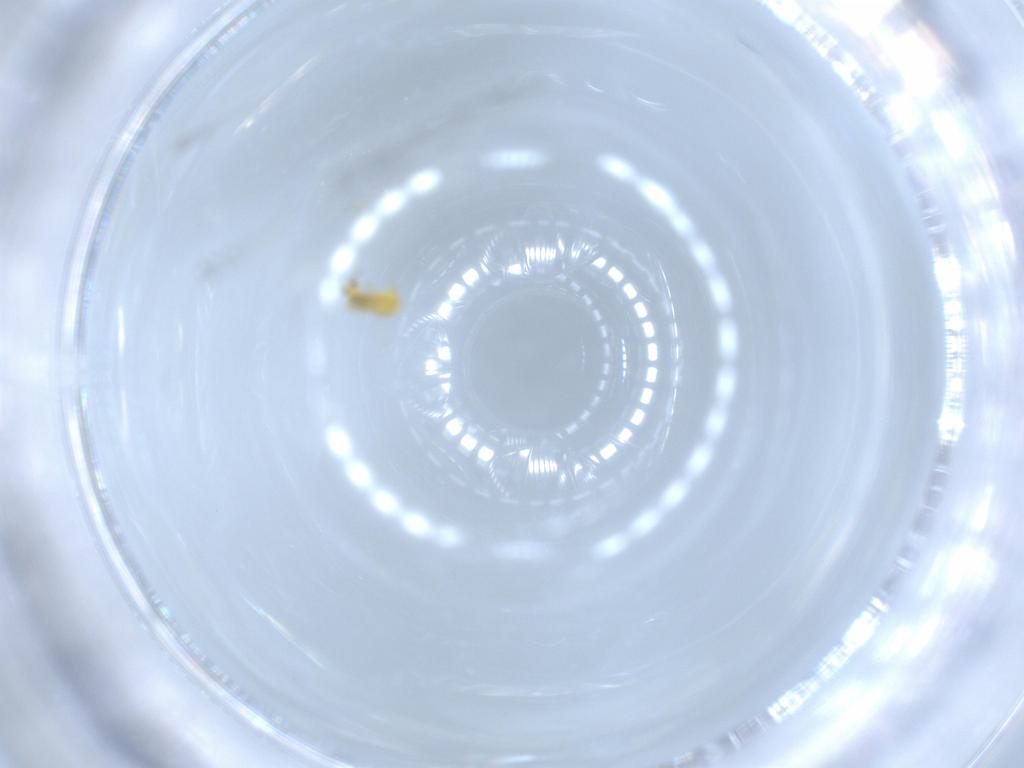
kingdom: Animalia
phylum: Arthropoda
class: Insecta
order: Thysanoptera
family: Thripidae
